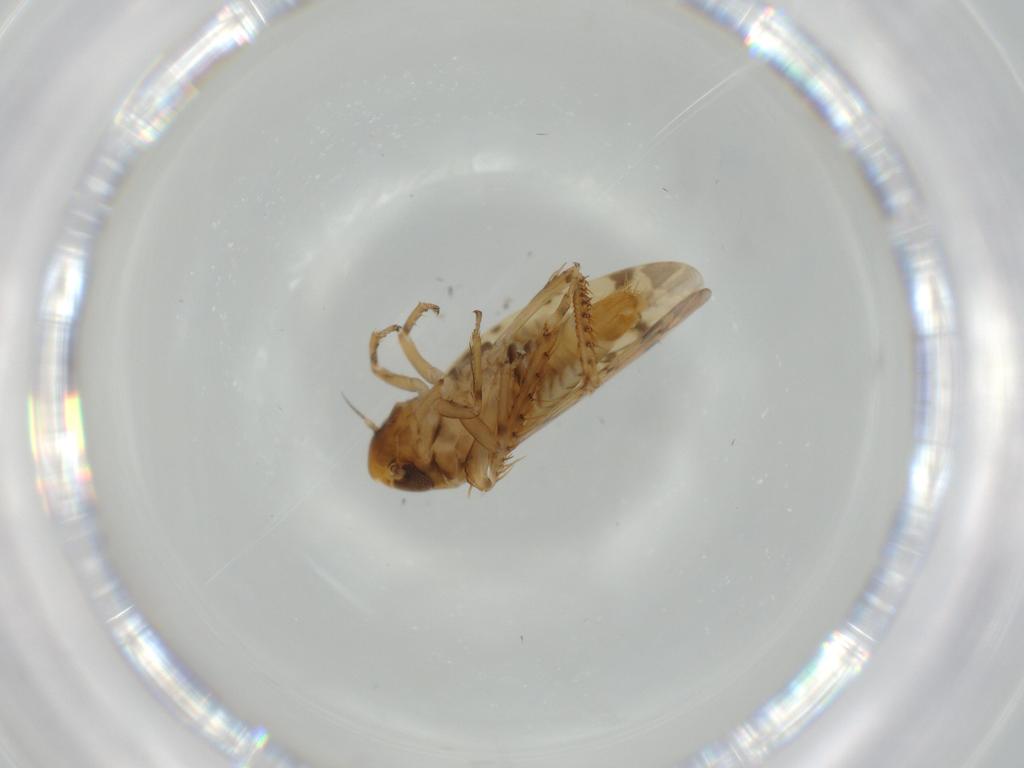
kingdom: Animalia
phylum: Arthropoda
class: Insecta
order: Hemiptera
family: Cicadellidae
